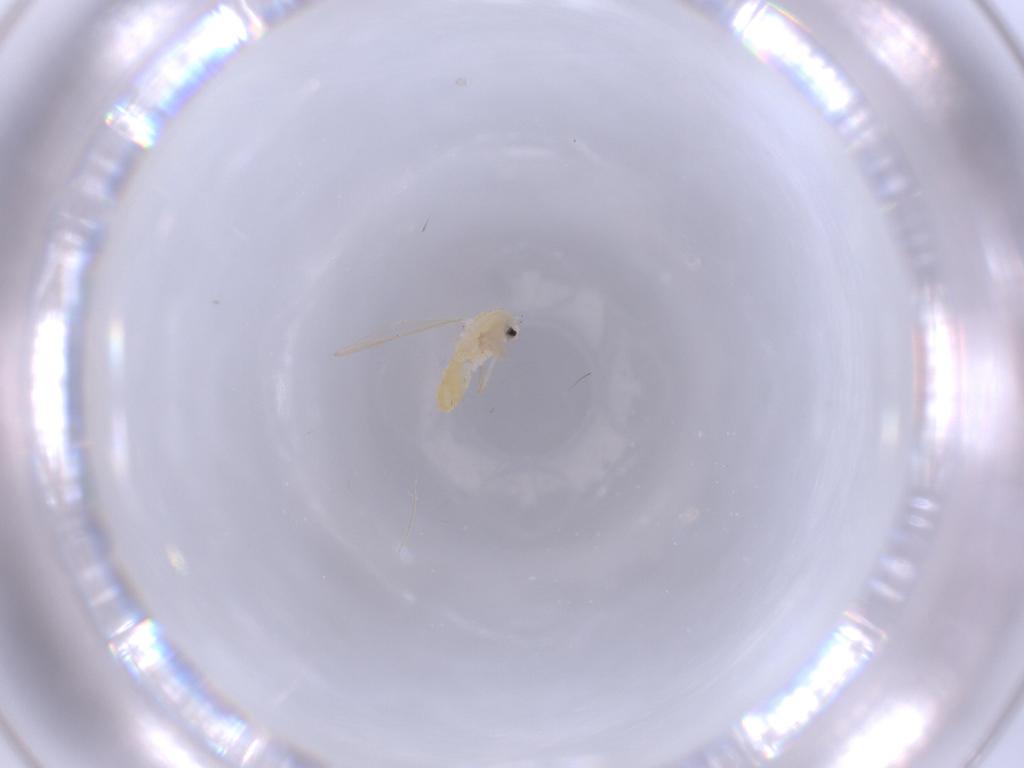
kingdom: Animalia
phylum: Arthropoda
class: Insecta
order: Diptera
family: Chironomidae
